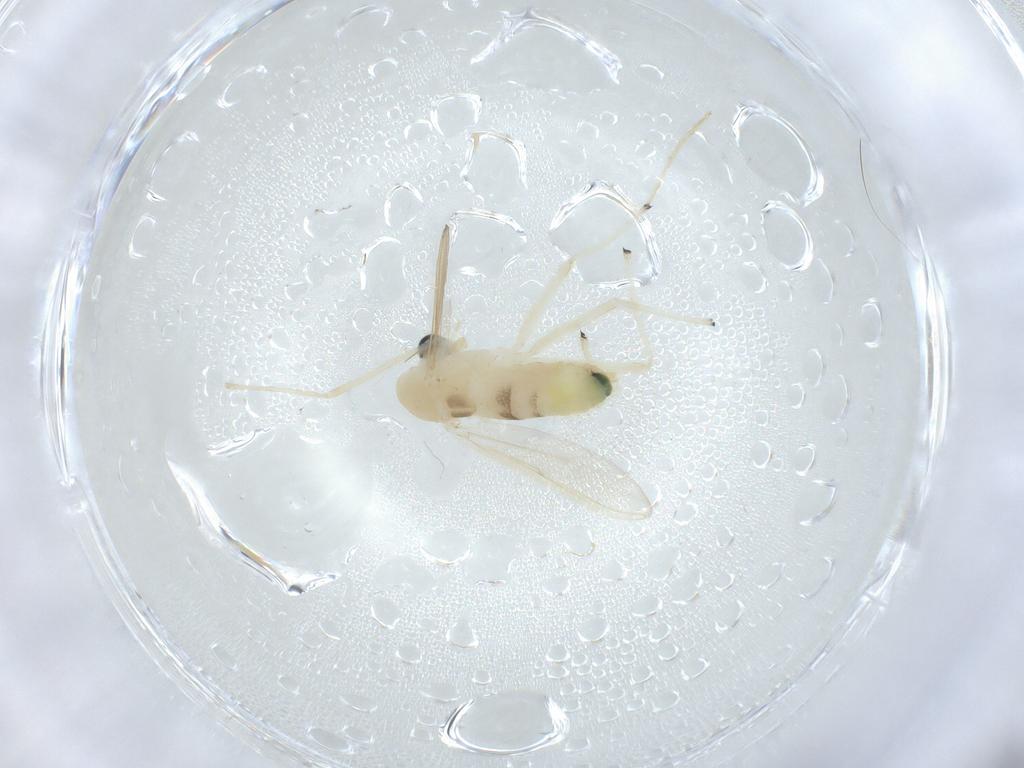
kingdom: Animalia
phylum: Arthropoda
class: Insecta
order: Diptera
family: Chironomidae
